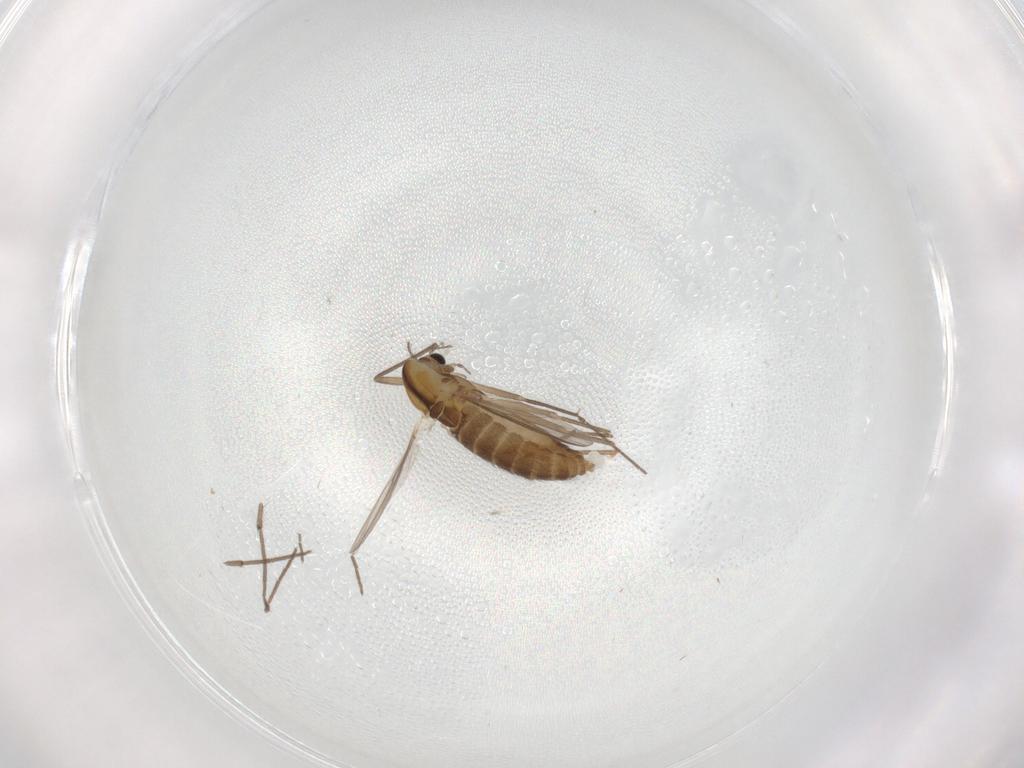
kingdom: Animalia
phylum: Arthropoda
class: Insecta
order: Diptera
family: Chironomidae
